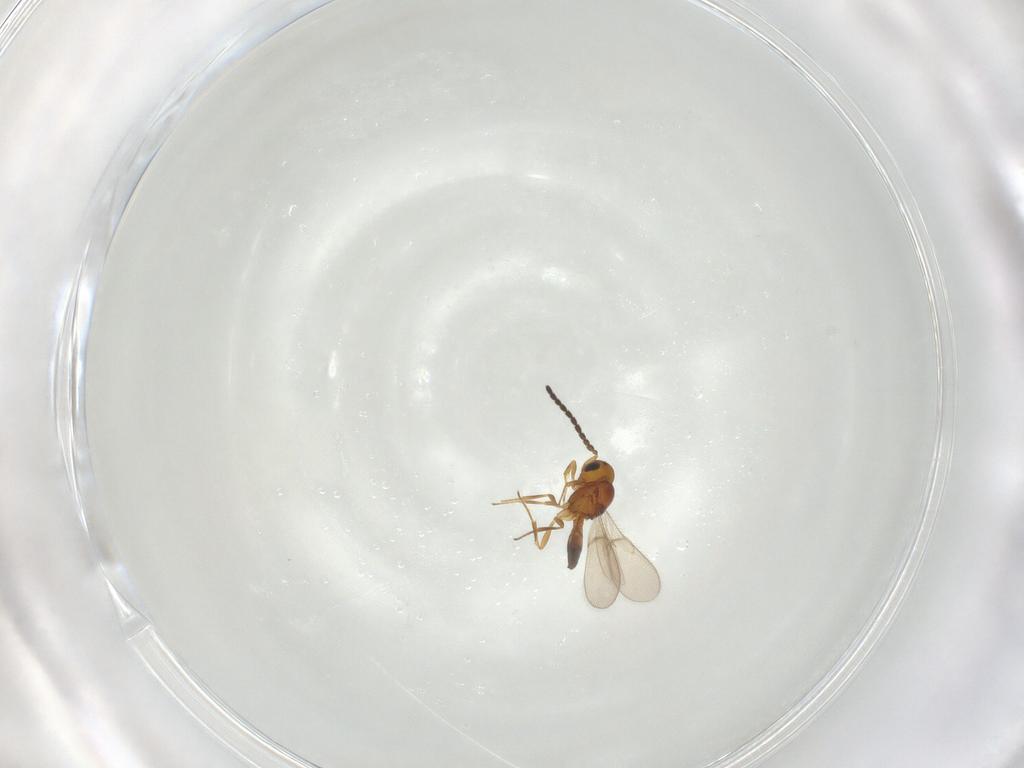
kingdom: Animalia
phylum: Arthropoda
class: Insecta
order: Hymenoptera
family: Scelionidae
